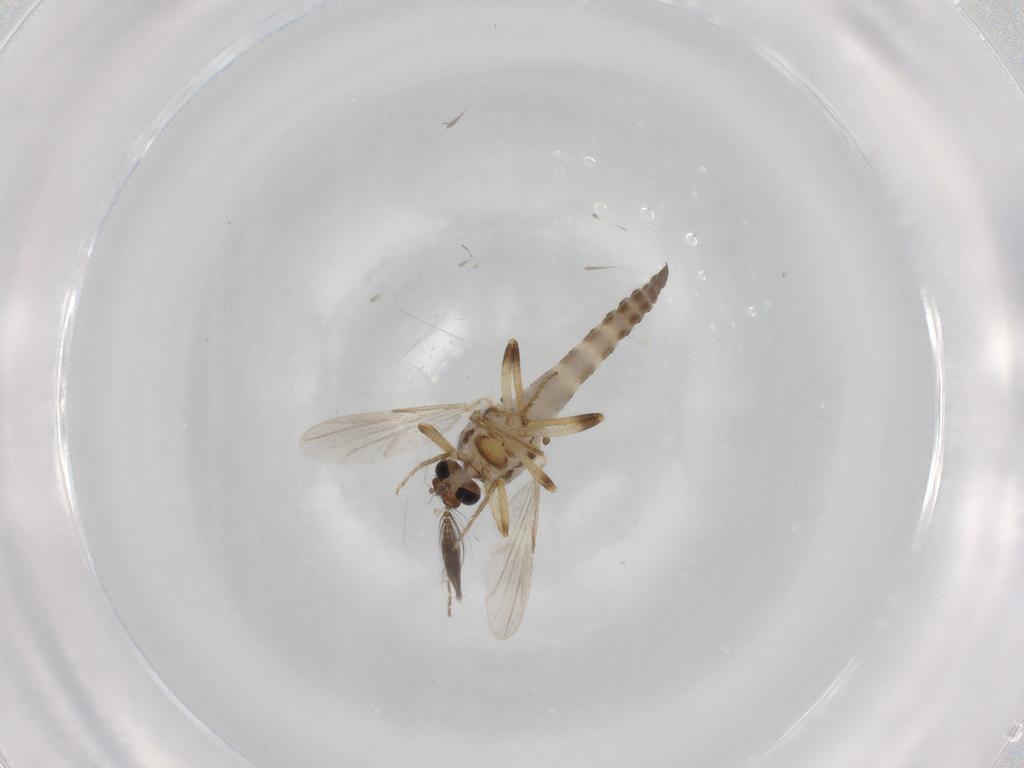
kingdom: Animalia
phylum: Arthropoda
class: Insecta
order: Diptera
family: Ceratopogonidae
